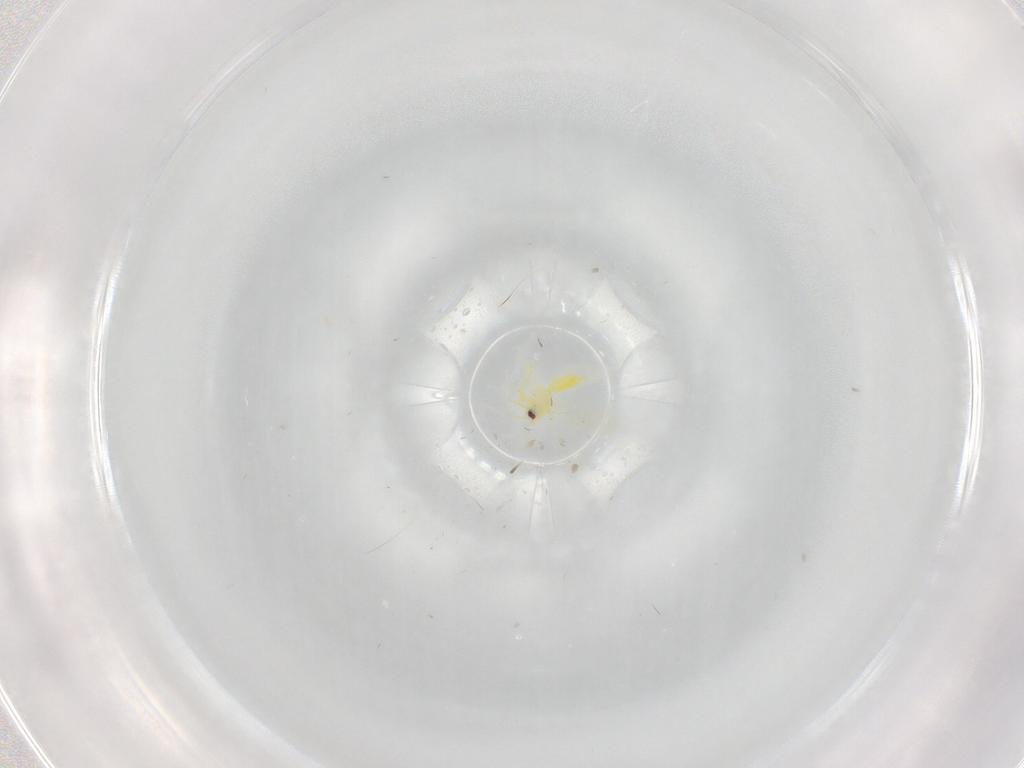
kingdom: Animalia
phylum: Arthropoda
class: Insecta
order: Hemiptera
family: Aleyrodidae
